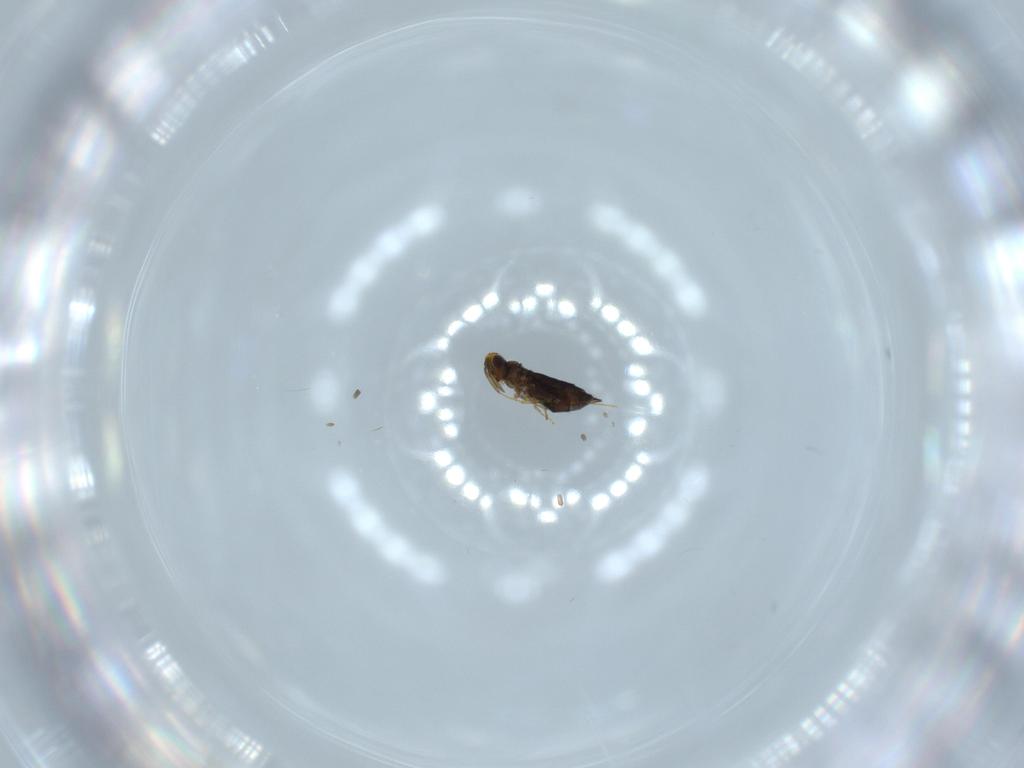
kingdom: Animalia
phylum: Arthropoda
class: Insecta
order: Hymenoptera
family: Signiphoridae
